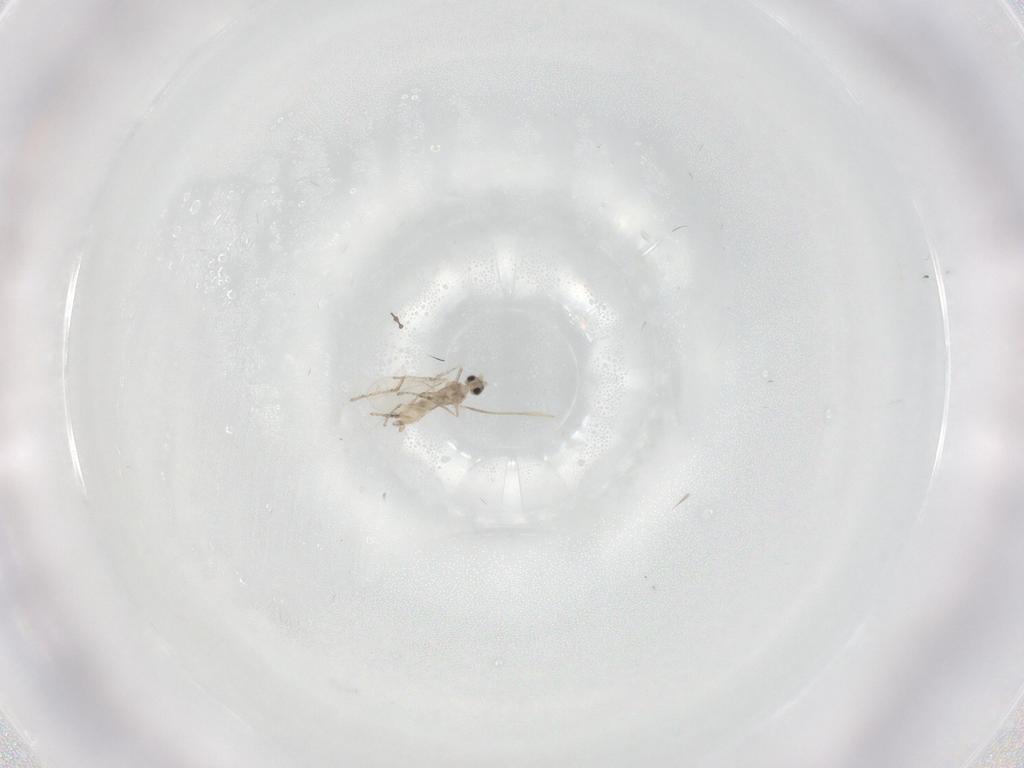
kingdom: Animalia
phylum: Arthropoda
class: Insecta
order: Diptera
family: Cecidomyiidae
